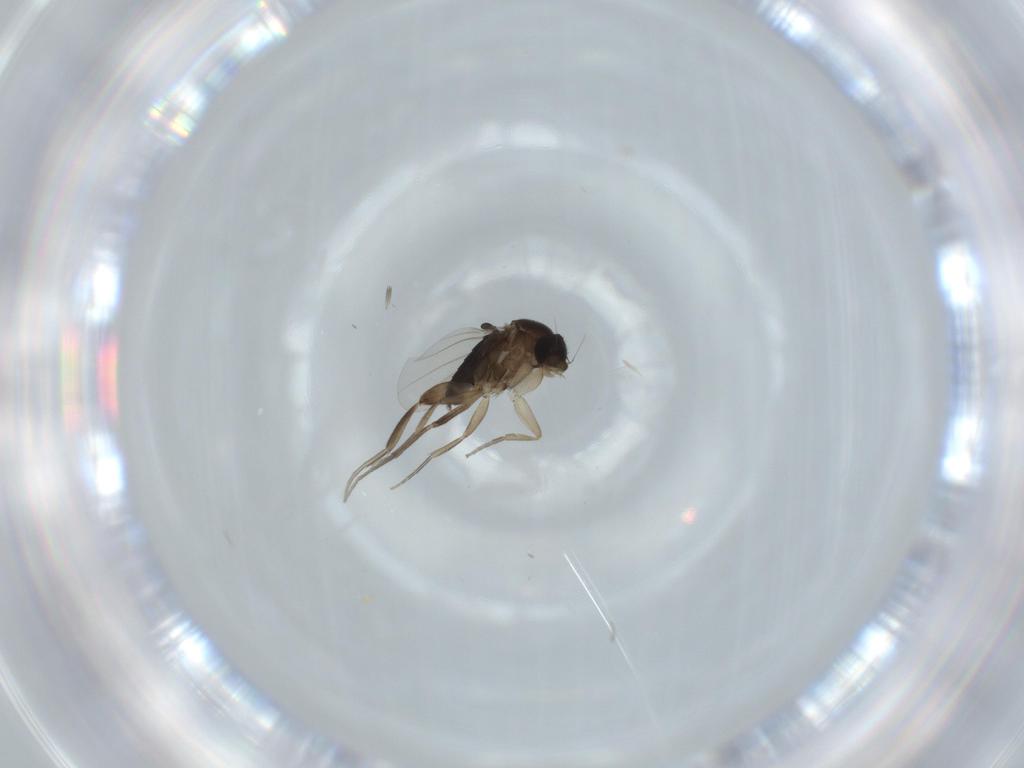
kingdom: Animalia
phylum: Arthropoda
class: Insecta
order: Diptera
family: Phoridae
